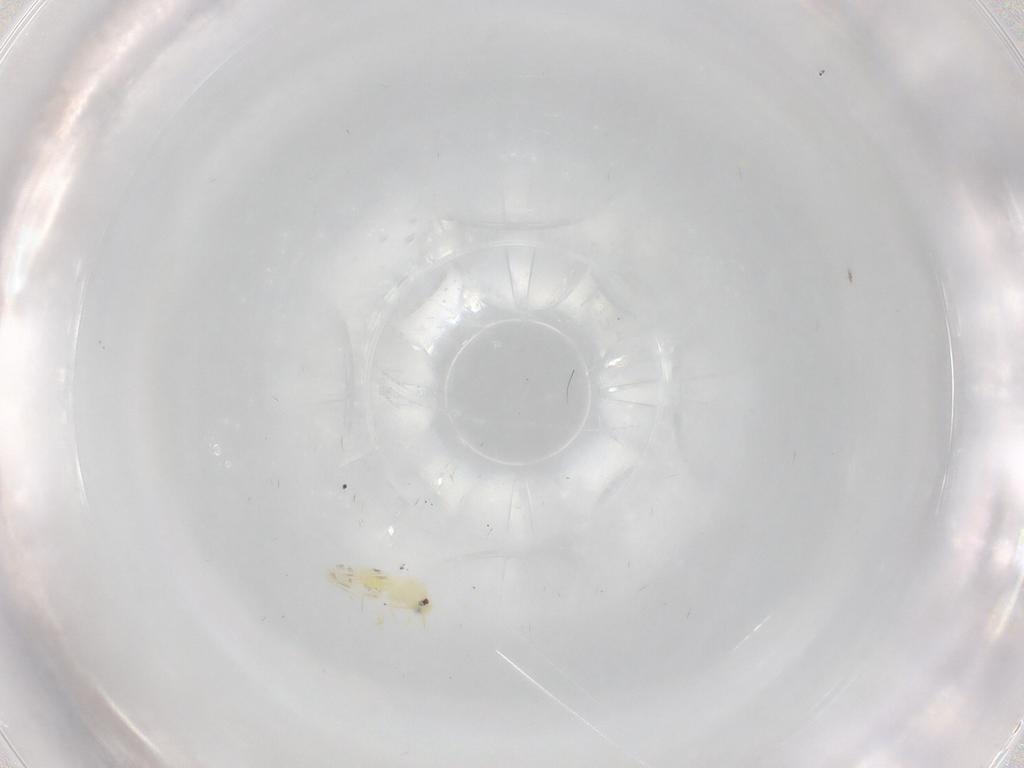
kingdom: Animalia
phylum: Arthropoda
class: Insecta
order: Hemiptera
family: Aleyrodidae
